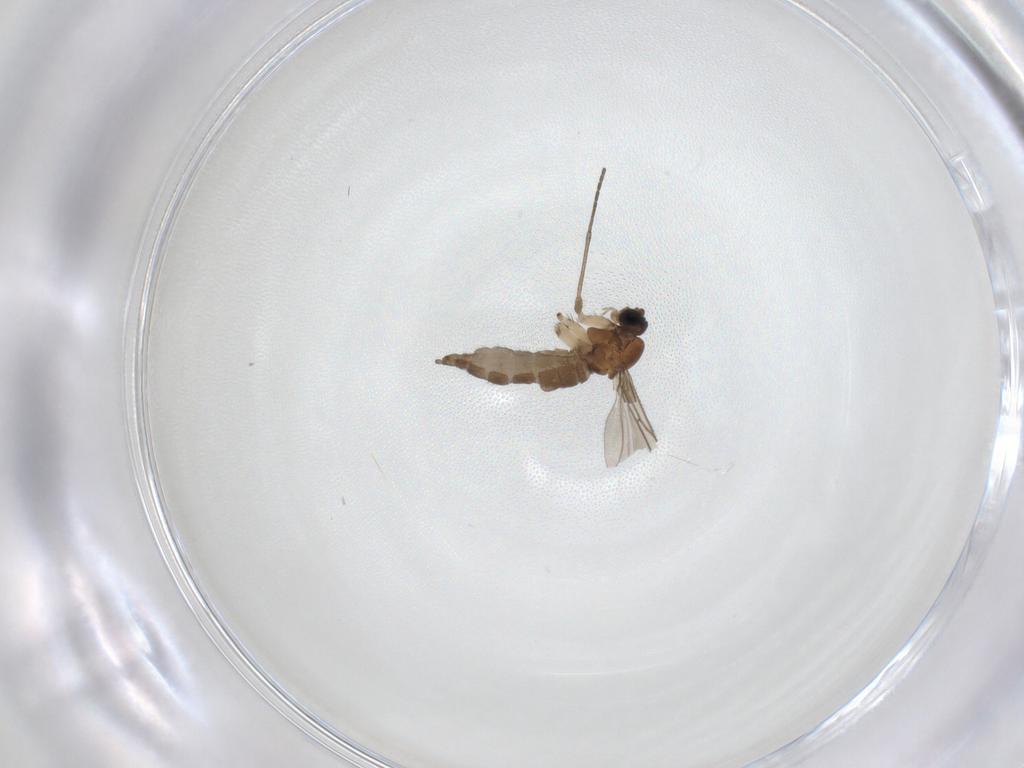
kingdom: Animalia
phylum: Arthropoda
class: Insecta
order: Diptera
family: Sciaridae
